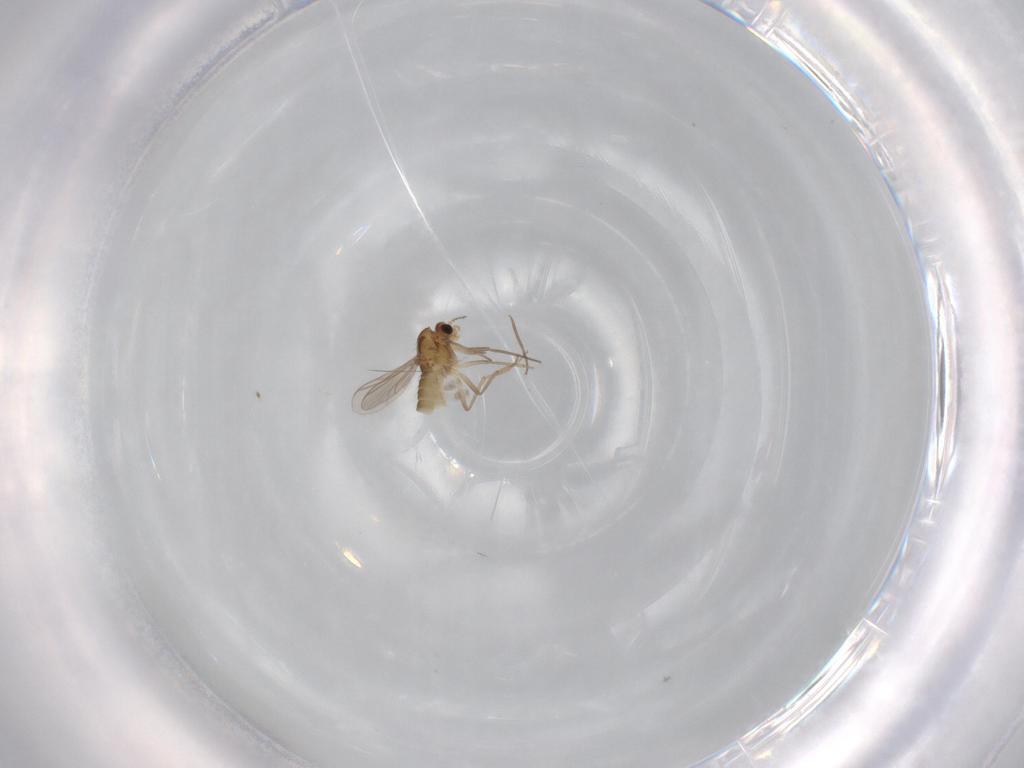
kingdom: Animalia
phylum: Arthropoda
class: Insecta
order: Diptera
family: Chironomidae
